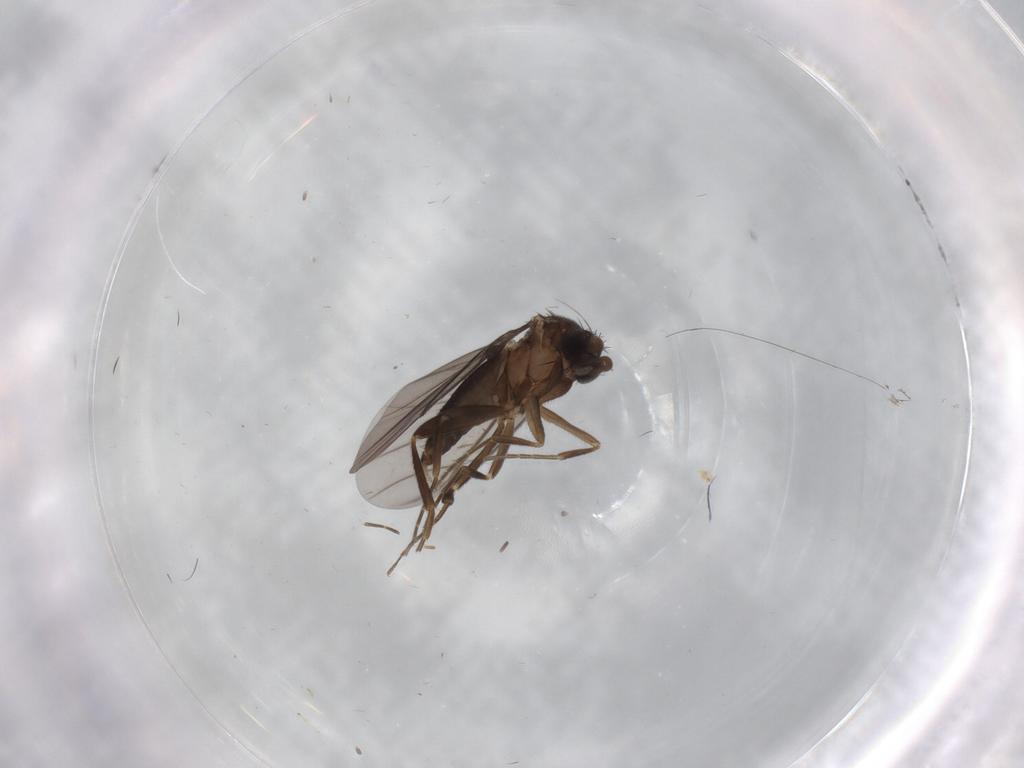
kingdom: Animalia
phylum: Arthropoda
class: Insecta
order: Diptera
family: Phoridae
